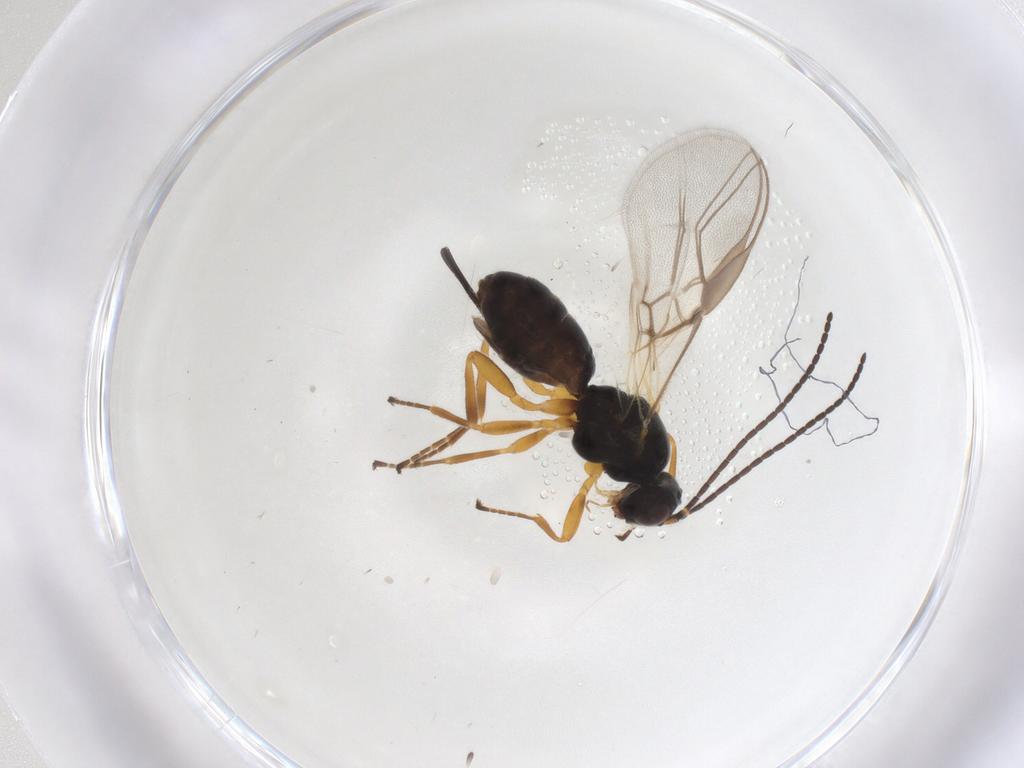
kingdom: Animalia
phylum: Arthropoda
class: Insecta
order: Hymenoptera
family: Braconidae
